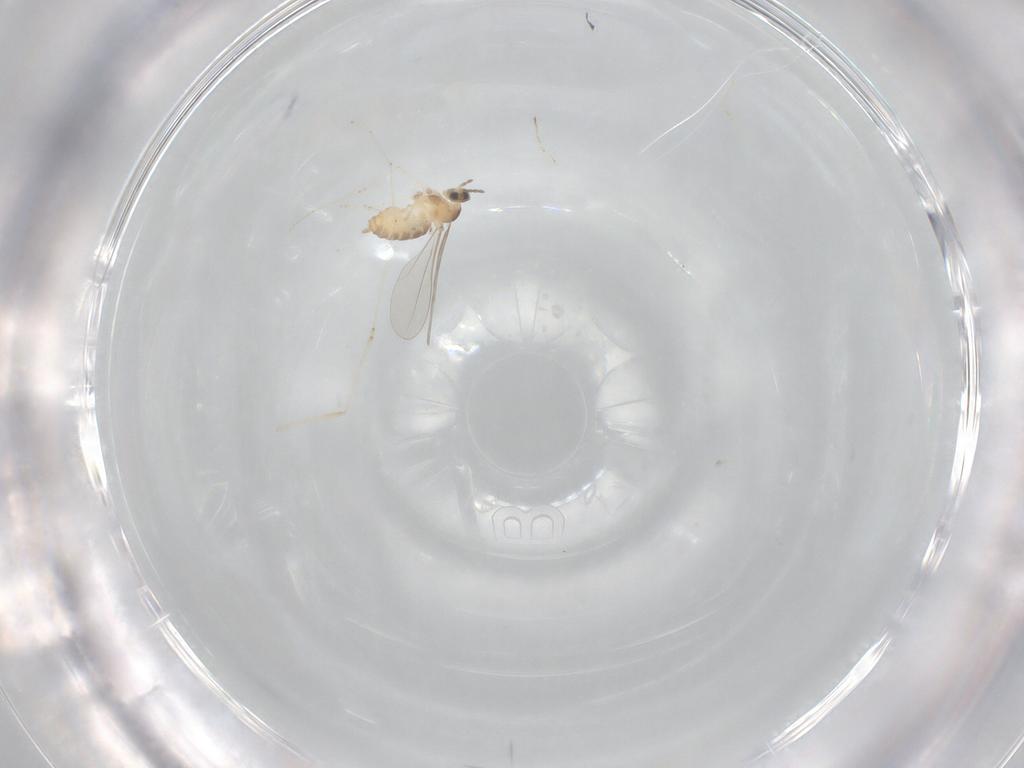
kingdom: Animalia
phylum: Arthropoda
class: Insecta
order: Diptera
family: Cecidomyiidae
